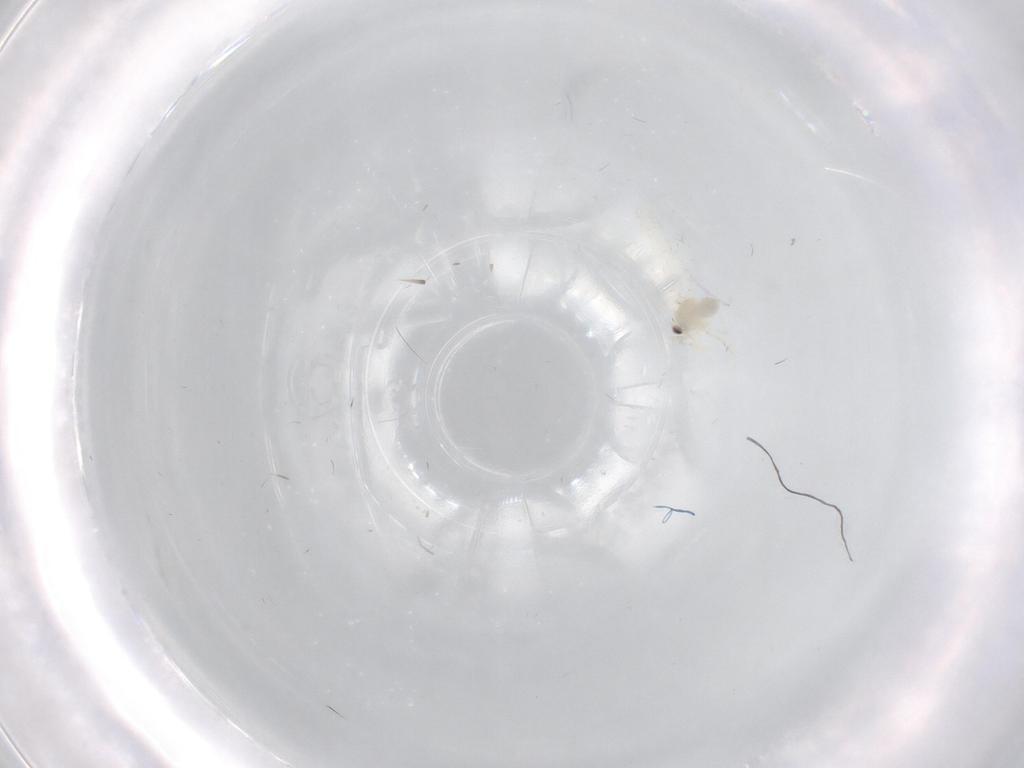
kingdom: Animalia
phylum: Arthropoda
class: Insecta
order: Hemiptera
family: Aleyrodidae
